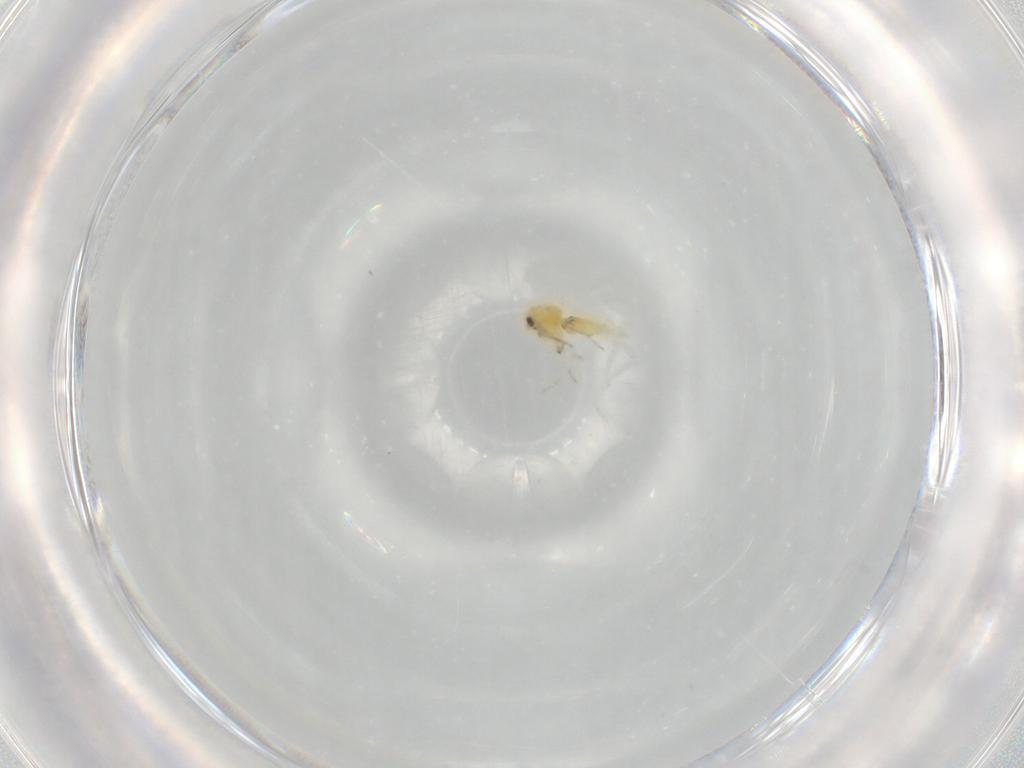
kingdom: Animalia
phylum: Arthropoda
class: Insecta
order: Hemiptera
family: Aleyrodidae
